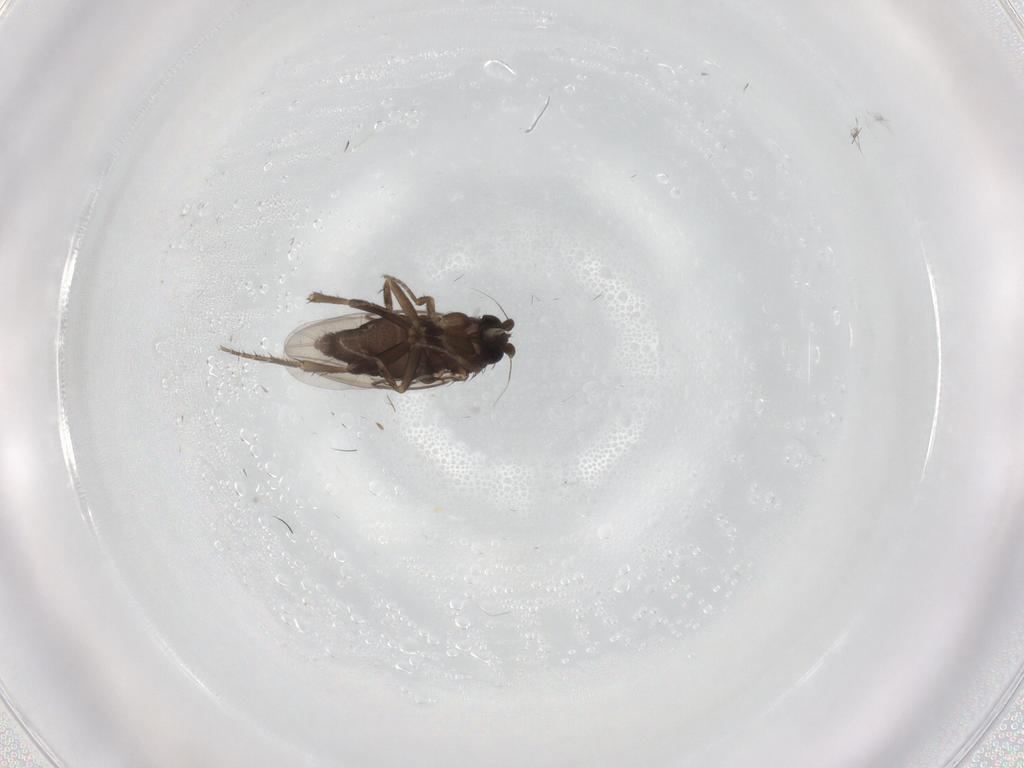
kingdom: Animalia
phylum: Arthropoda
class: Insecta
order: Diptera
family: Phoridae
